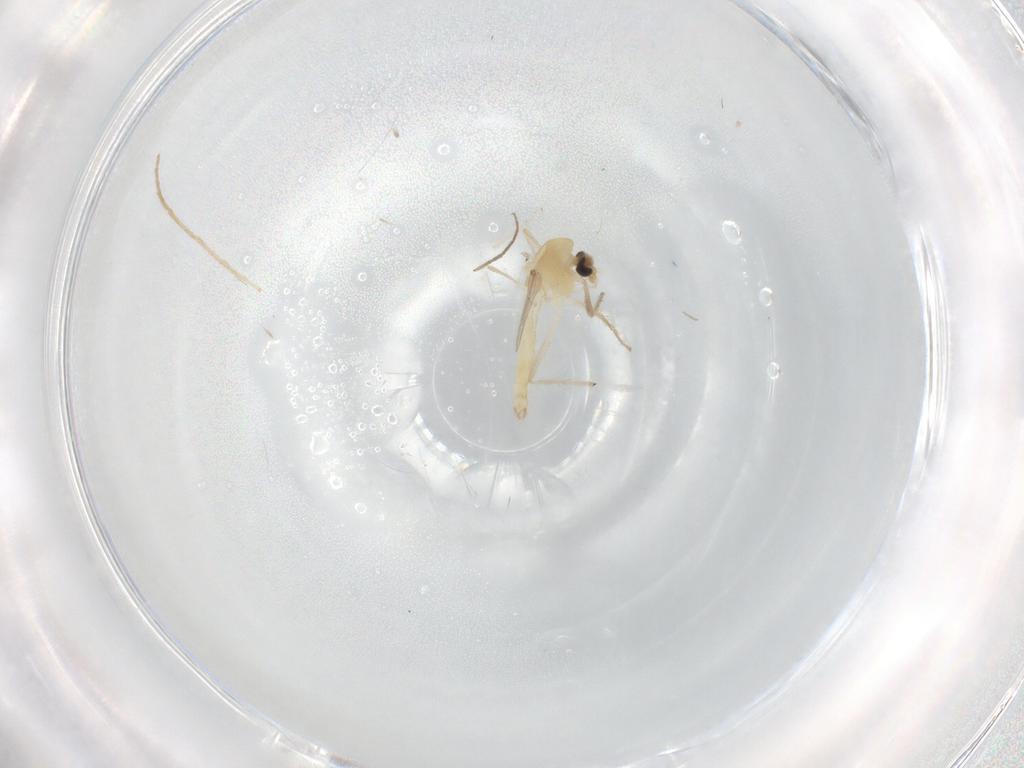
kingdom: Animalia
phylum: Arthropoda
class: Insecta
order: Diptera
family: Chironomidae
